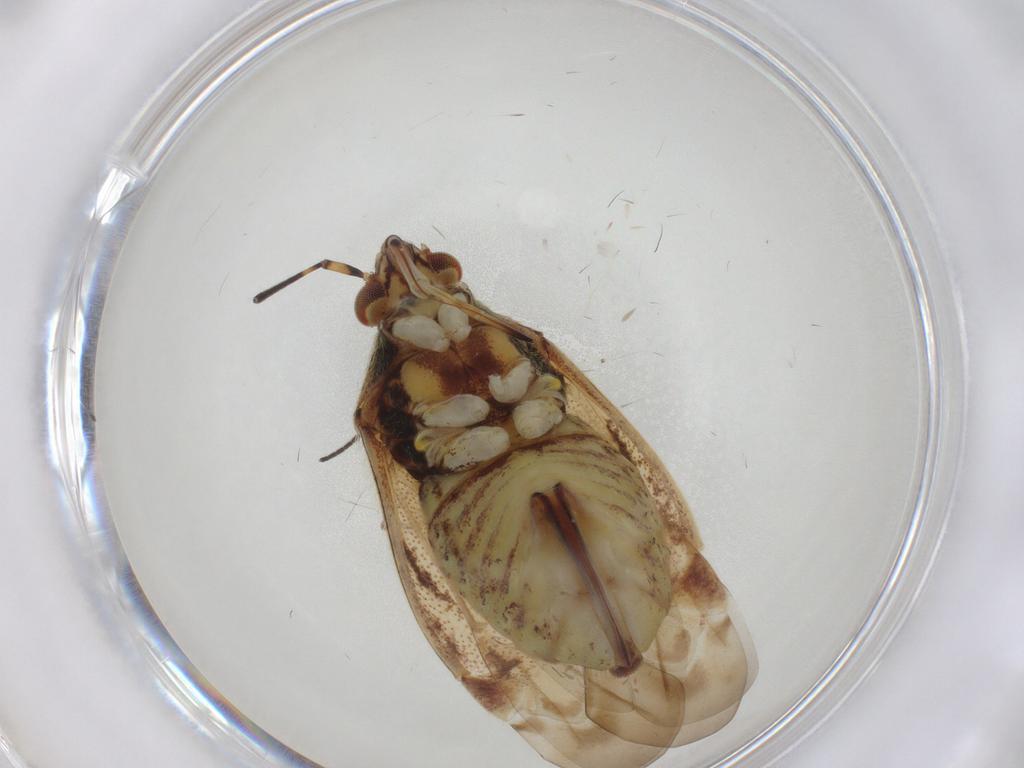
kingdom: Animalia
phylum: Arthropoda
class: Insecta
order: Hemiptera
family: Miridae
